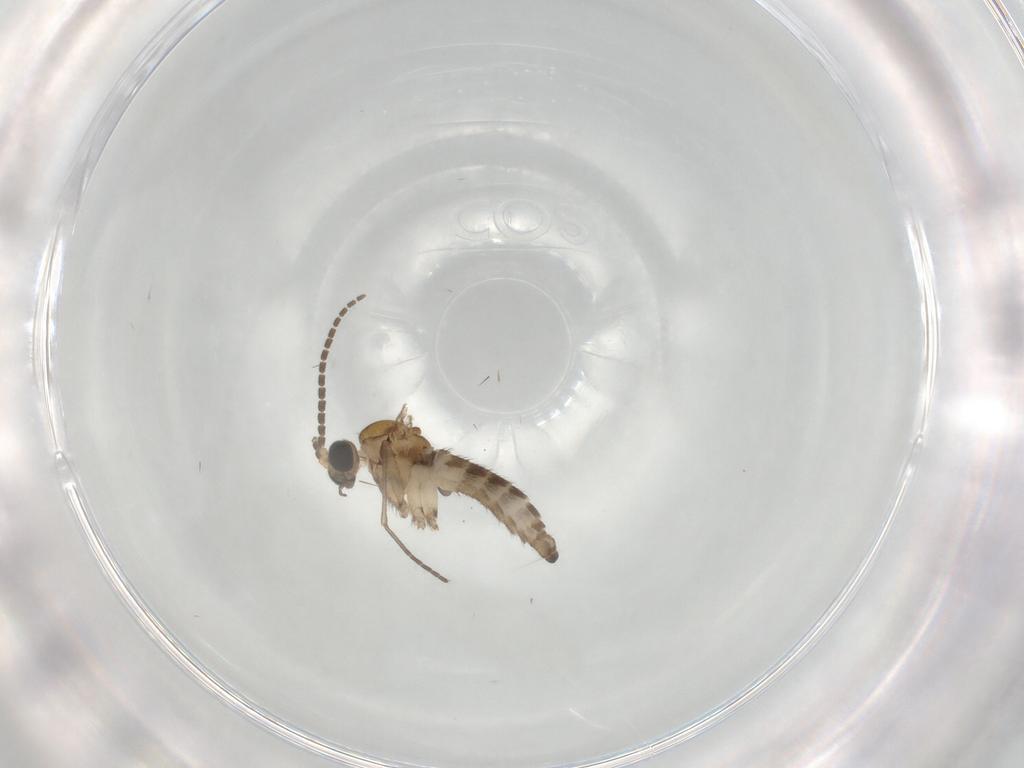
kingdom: Animalia
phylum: Arthropoda
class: Insecta
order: Diptera
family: Sciaridae
